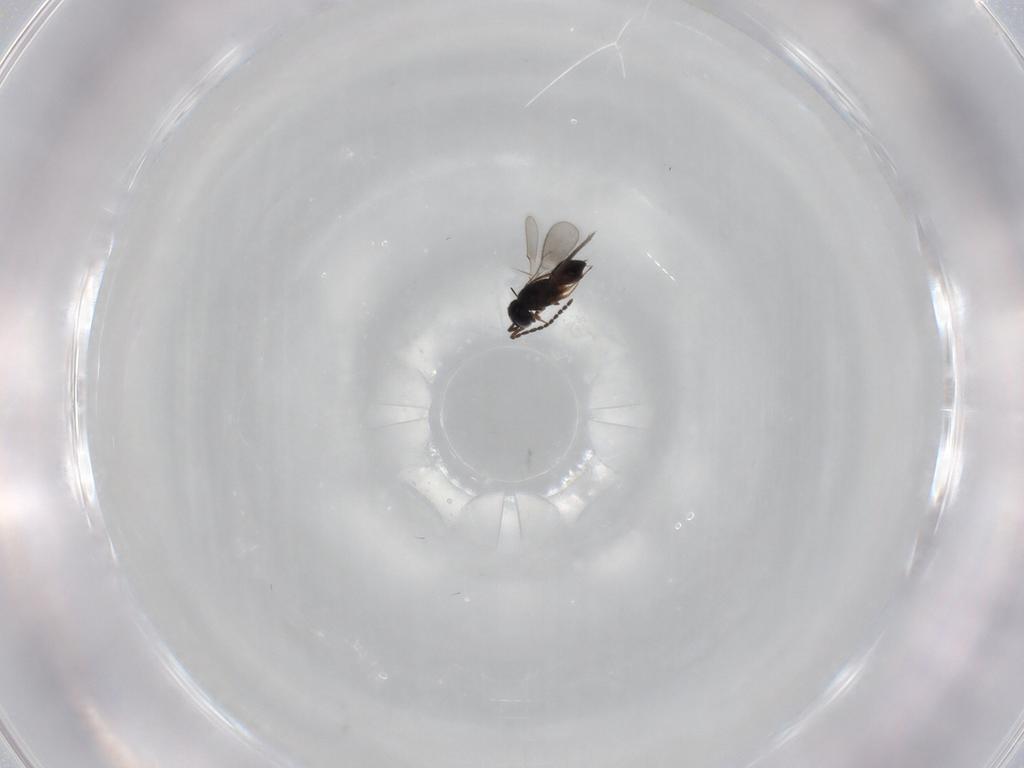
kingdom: Animalia
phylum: Arthropoda
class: Insecta
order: Hymenoptera
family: Scelionidae
